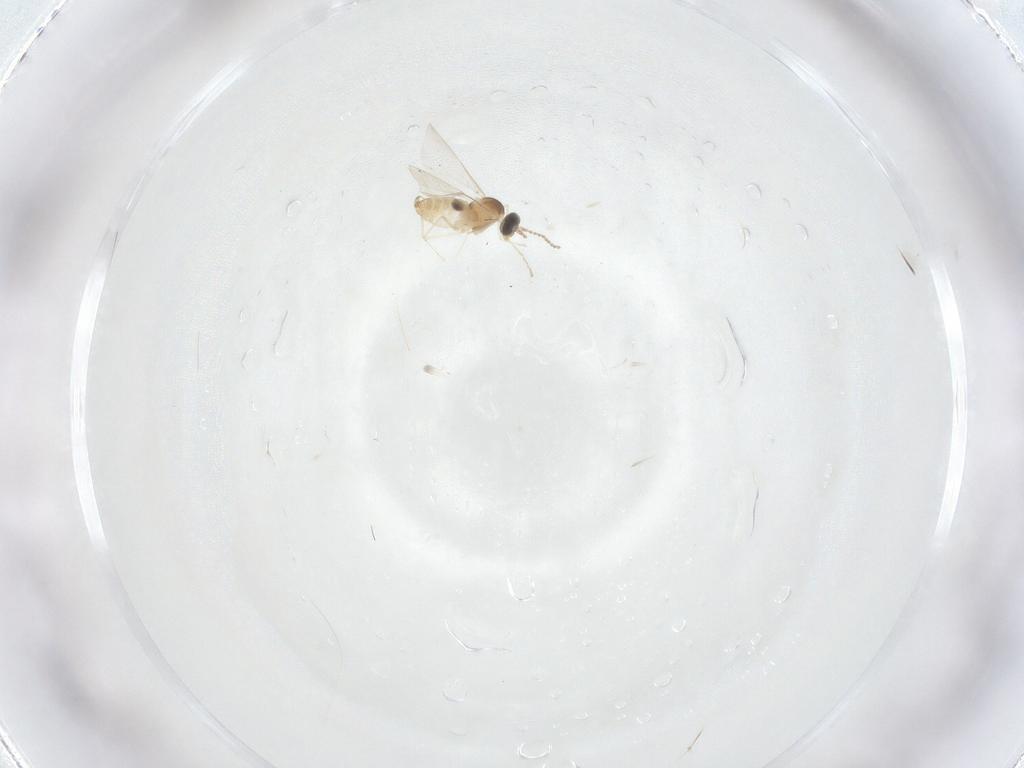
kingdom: Animalia
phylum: Arthropoda
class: Insecta
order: Diptera
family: Cecidomyiidae
